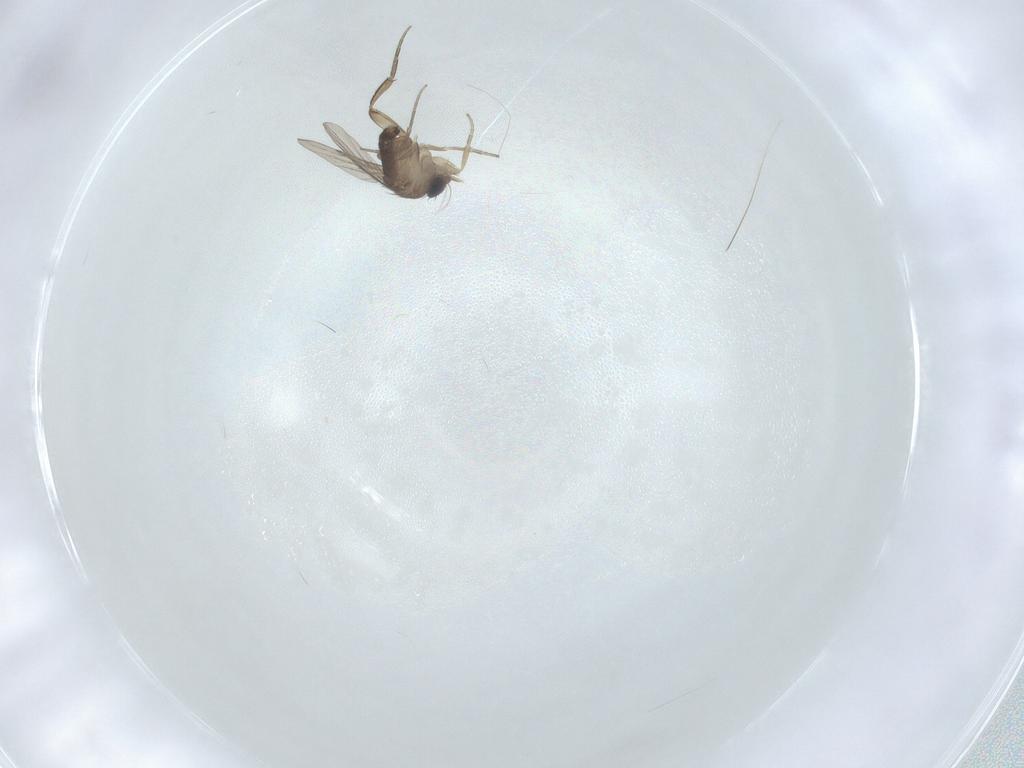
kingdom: Animalia
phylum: Arthropoda
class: Insecta
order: Diptera
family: Phoridae
